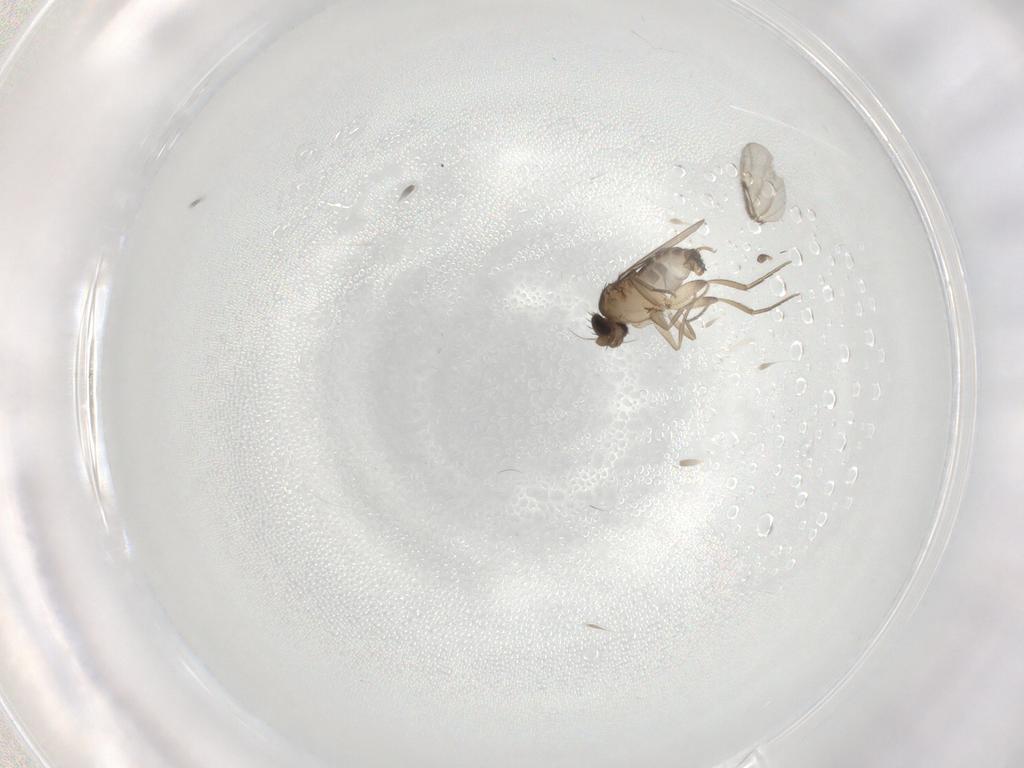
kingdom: Animalia
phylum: Arthropoda
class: Insecta
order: Diptera
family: Phoridae
